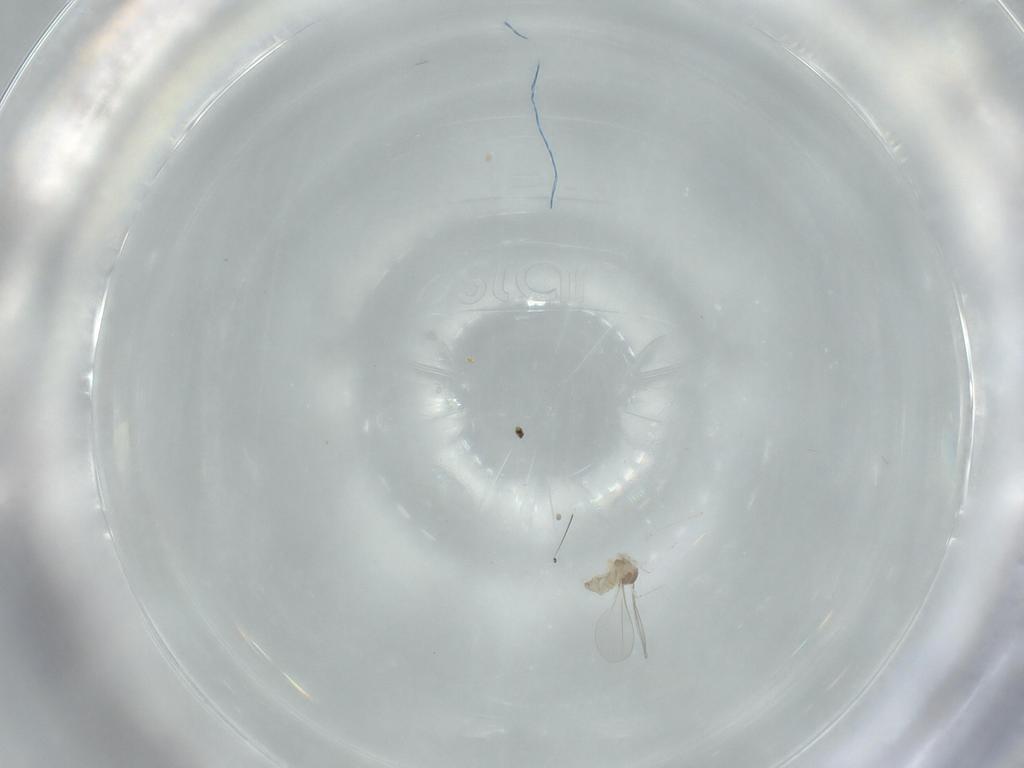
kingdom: Animalia
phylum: Arthropoda
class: Insecta
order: Diptera
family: Cecidomyiidae
